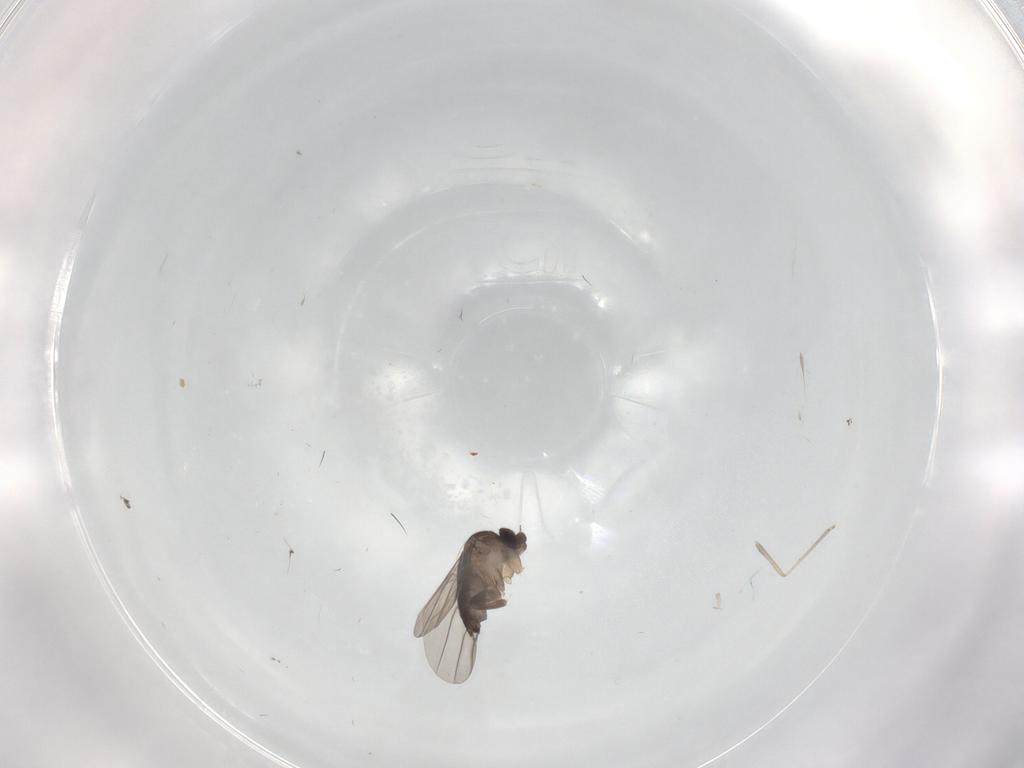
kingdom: Animalia
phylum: Arthropoda
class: Insecta
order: Diptera
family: Cecidomyiidae
